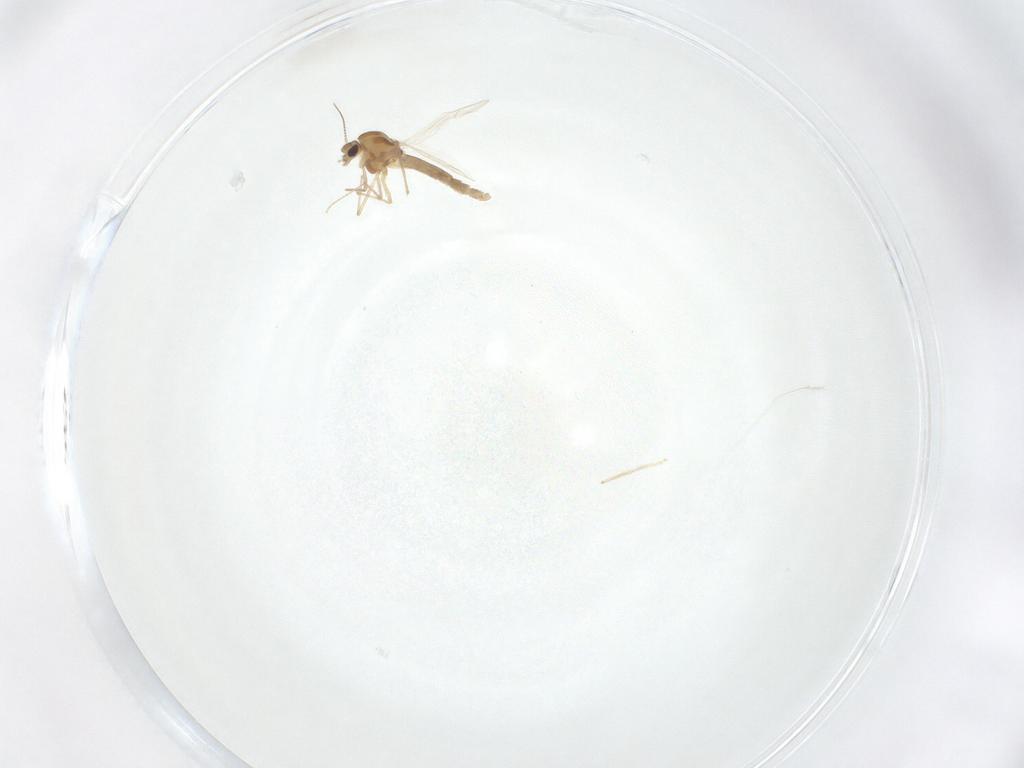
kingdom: Animalia
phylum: Arthropoda
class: Insecta
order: Diptera
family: Chironomidae
